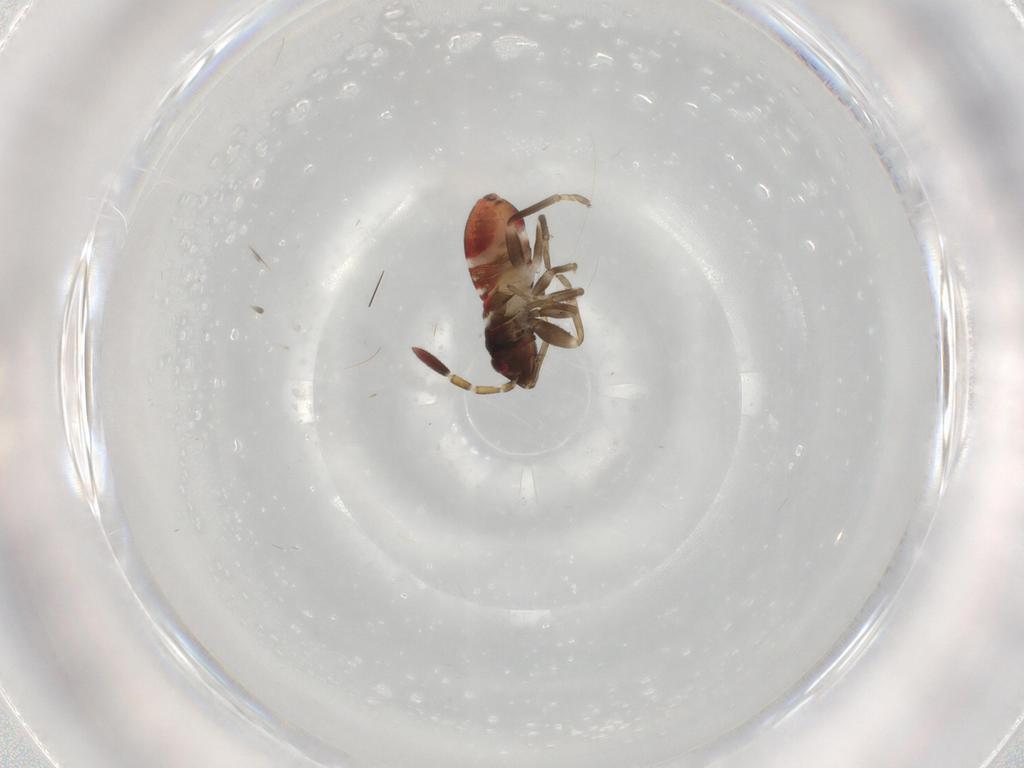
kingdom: Animalia
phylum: Arthropoda
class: Insecta
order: Hemiptera
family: Rhyparochromidae
